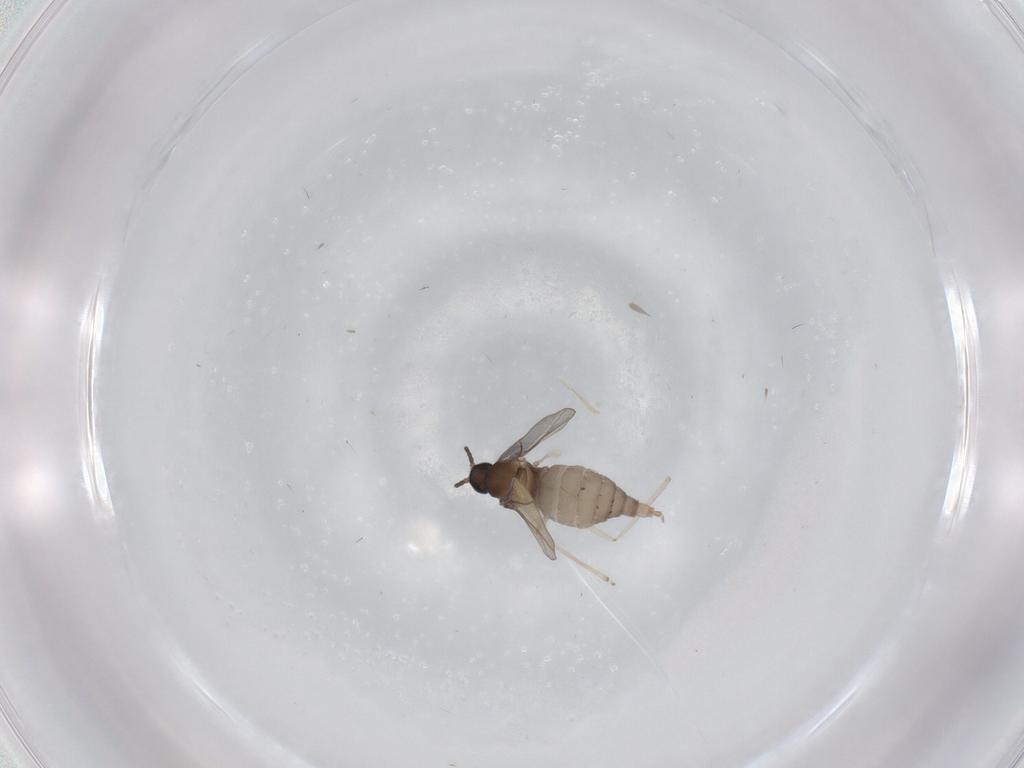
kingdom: Animalia
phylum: Arthropoda
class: Insecta
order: Diptera
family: Cecidomyiidae
